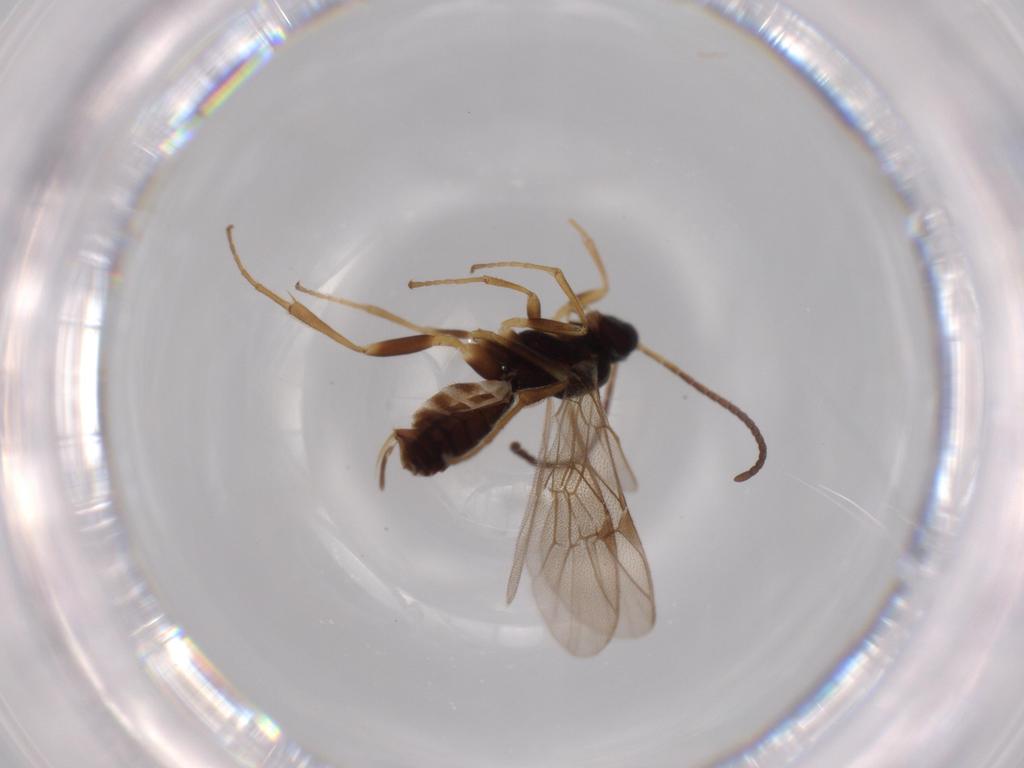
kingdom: Animalia
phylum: Arthropoda
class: Insecta
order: Hymenoptera
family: Ichneumonidae
